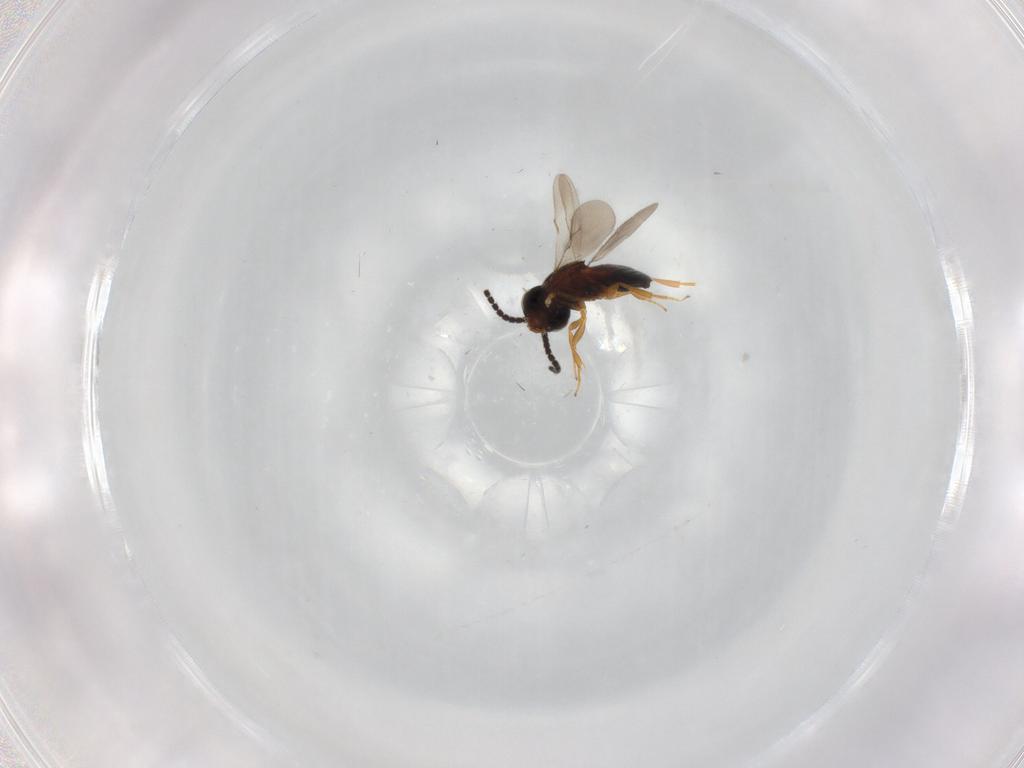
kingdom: Animalia
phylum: Arthropoda
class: Insecta
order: Hymenoptera
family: Scelionidae
